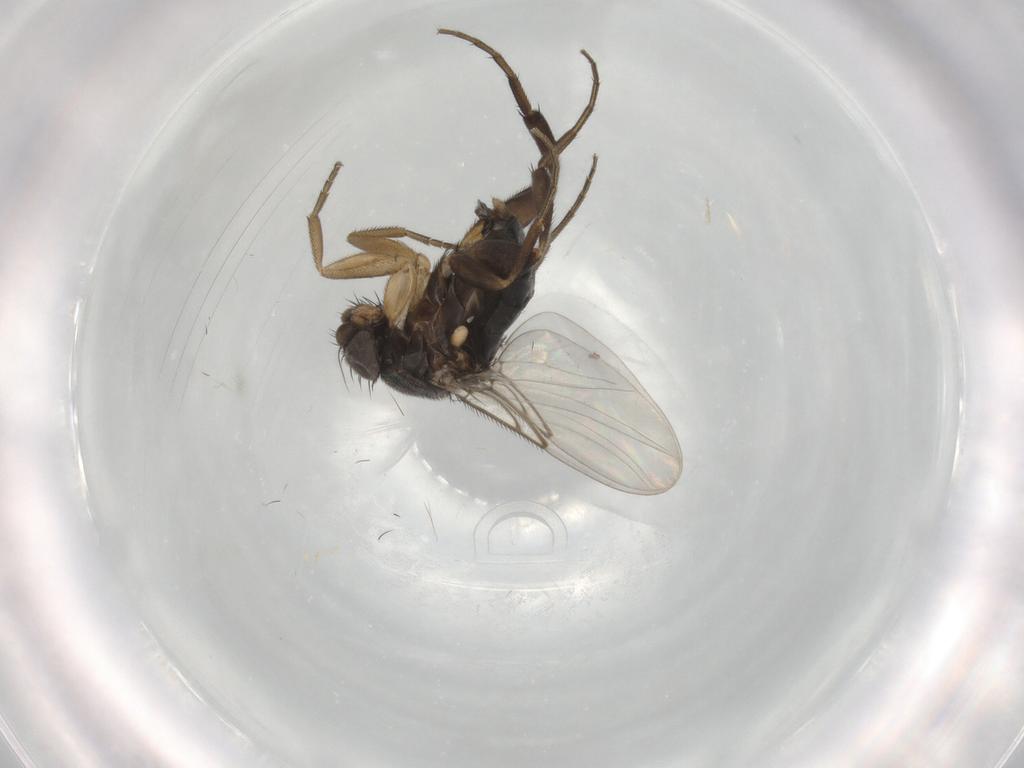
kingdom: Animalia
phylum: Arthropoda
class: Insecta
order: Diptera
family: Phoridae
